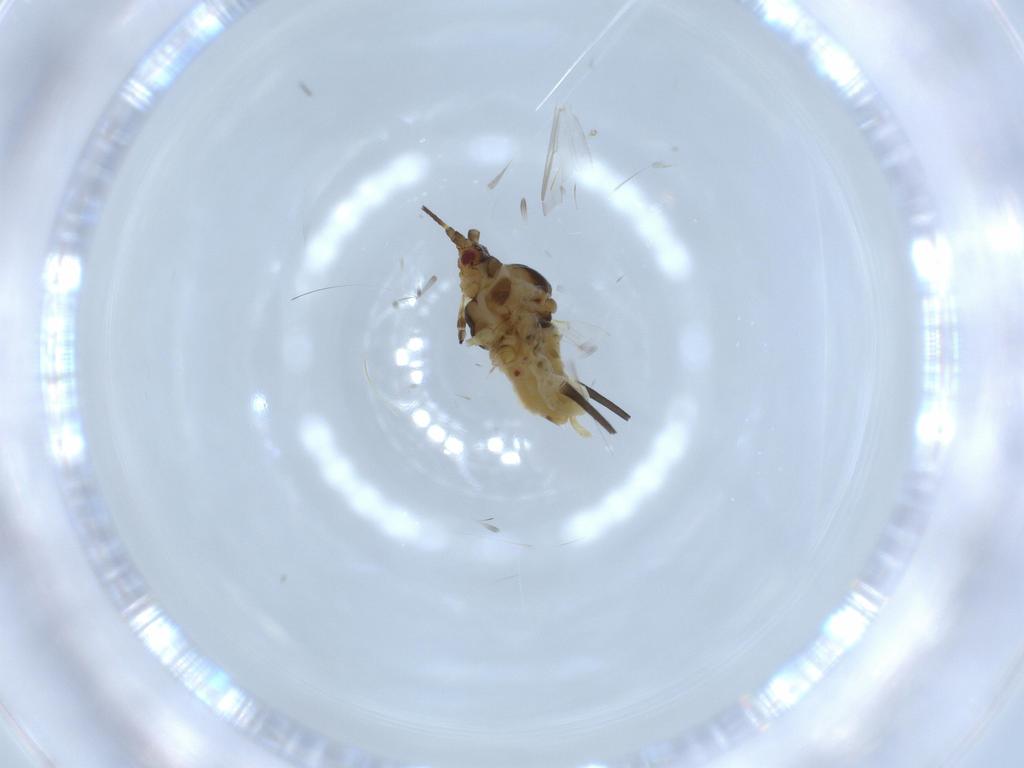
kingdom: Animalia
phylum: Arthropoda
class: Insecta
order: Hemiptera
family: Aphididae
